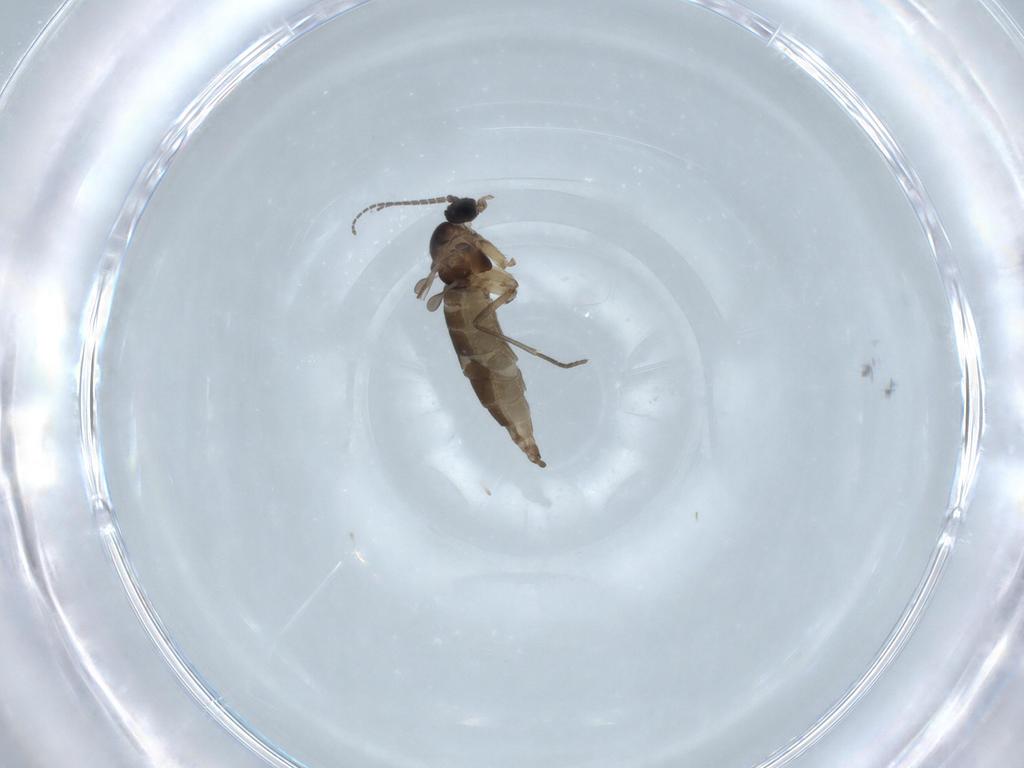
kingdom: Animalia
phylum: Arthropoda
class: Insecta
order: Diptera
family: Sciaridae
